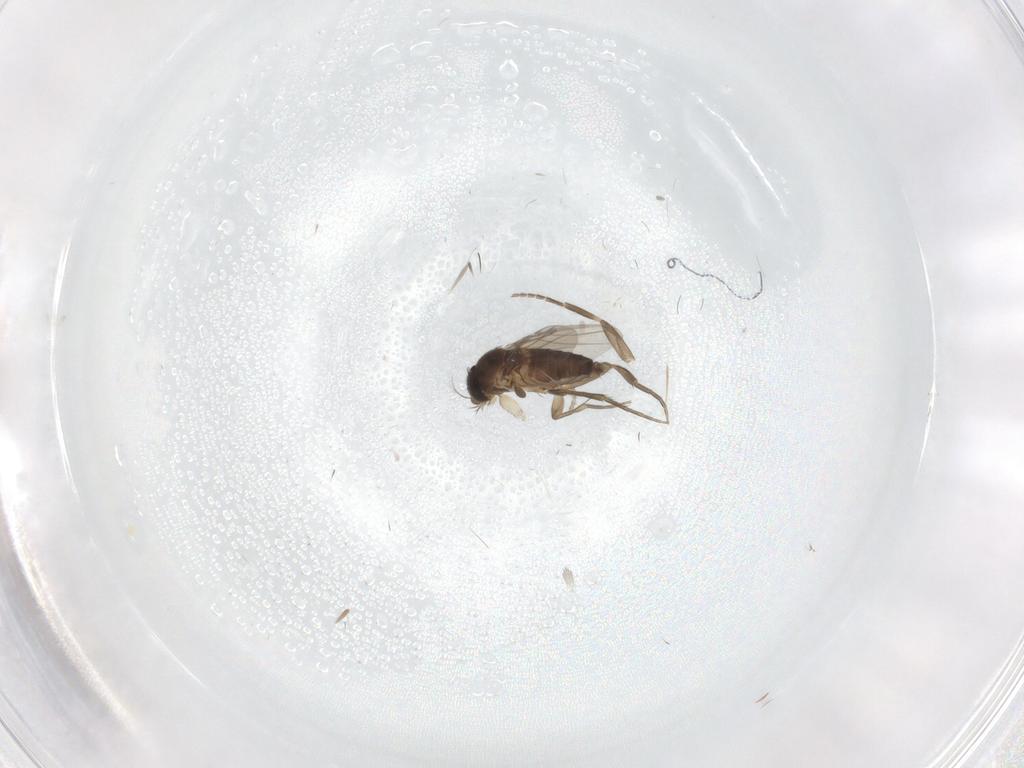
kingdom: Animalia
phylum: Arthropoda
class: Insecta
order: Diptera
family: Phoridae
